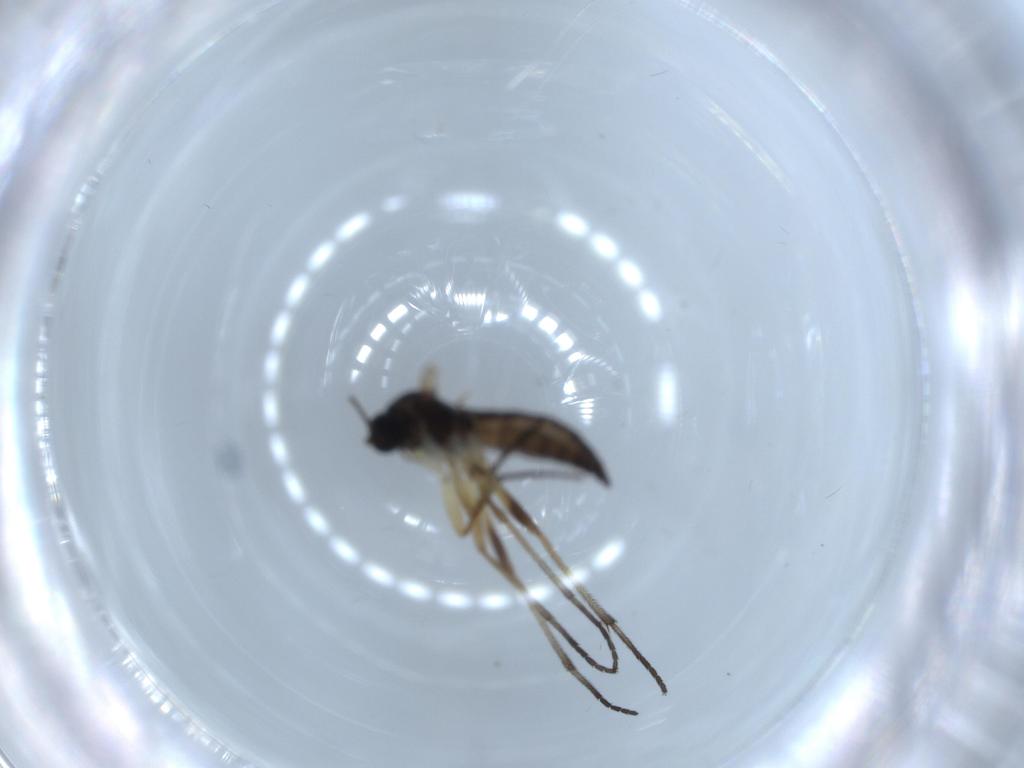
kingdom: Animalia
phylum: Arthropoda
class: Insecta
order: Diptera
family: Sciaridae
